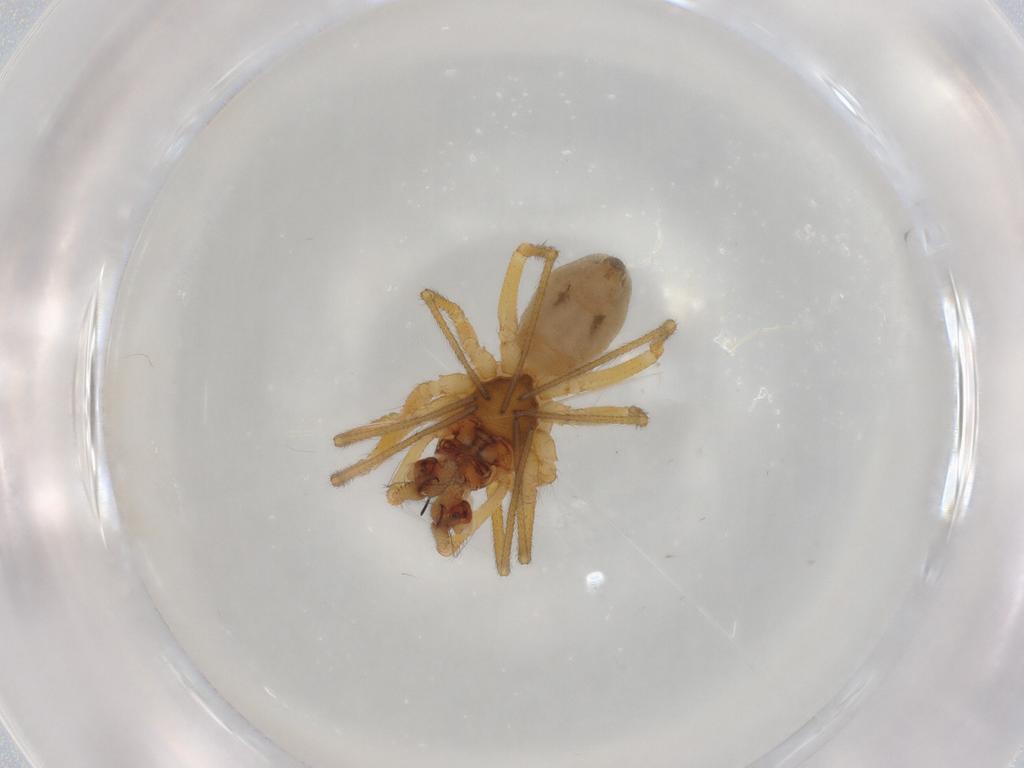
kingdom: Animalia
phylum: Arthropoda
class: Arachnida
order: Araneae
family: Linyphiidae
